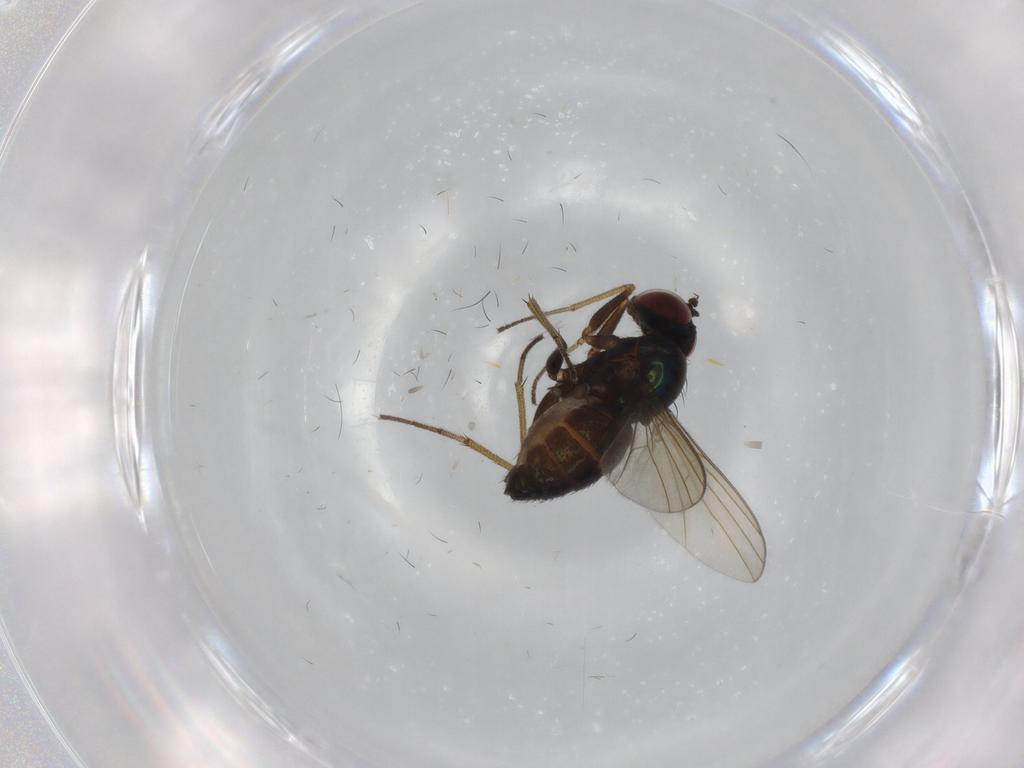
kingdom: Animalia
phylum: Arthropoda
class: Insecta
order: Diptera
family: Dolichopodidae
